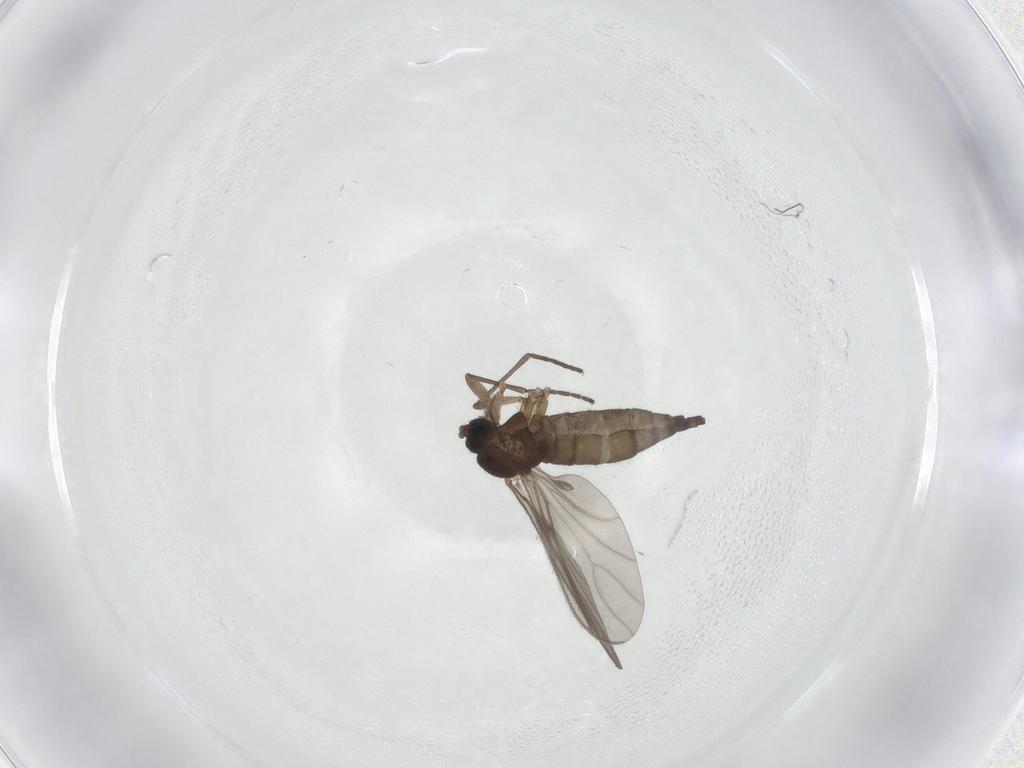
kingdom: Animalia
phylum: Arthropoda
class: Insecta
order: Diptera
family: Sciaridae
